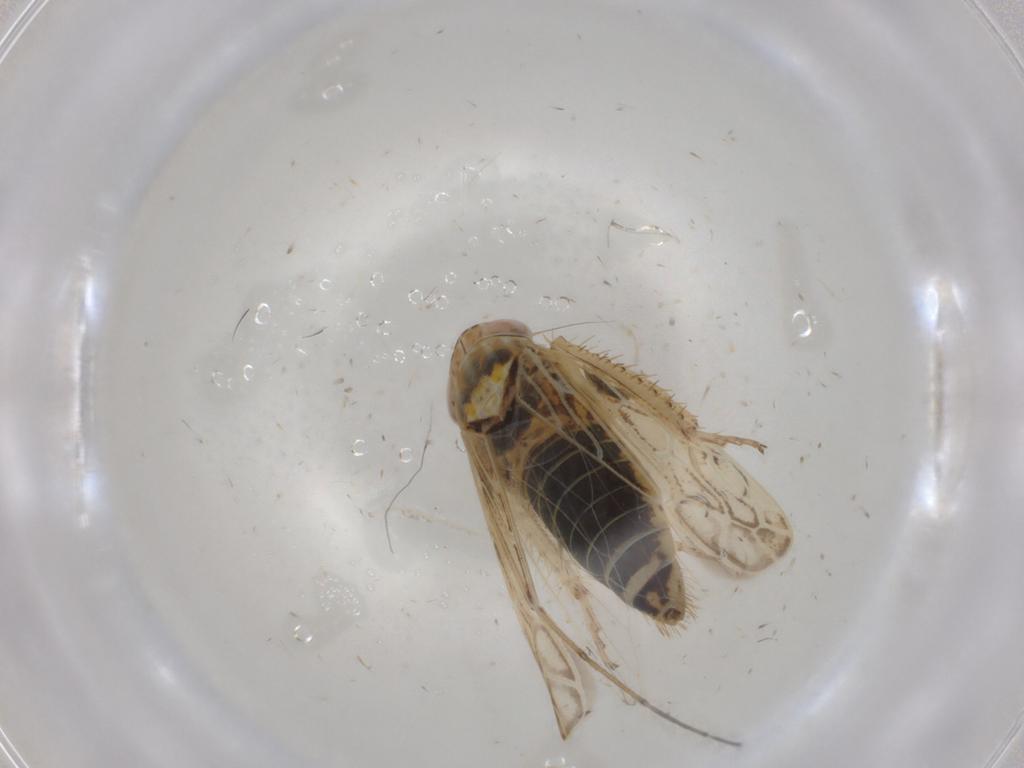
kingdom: Animalia
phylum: Arthropoda
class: Insecta
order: Hemiptera
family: Cicadellidae
